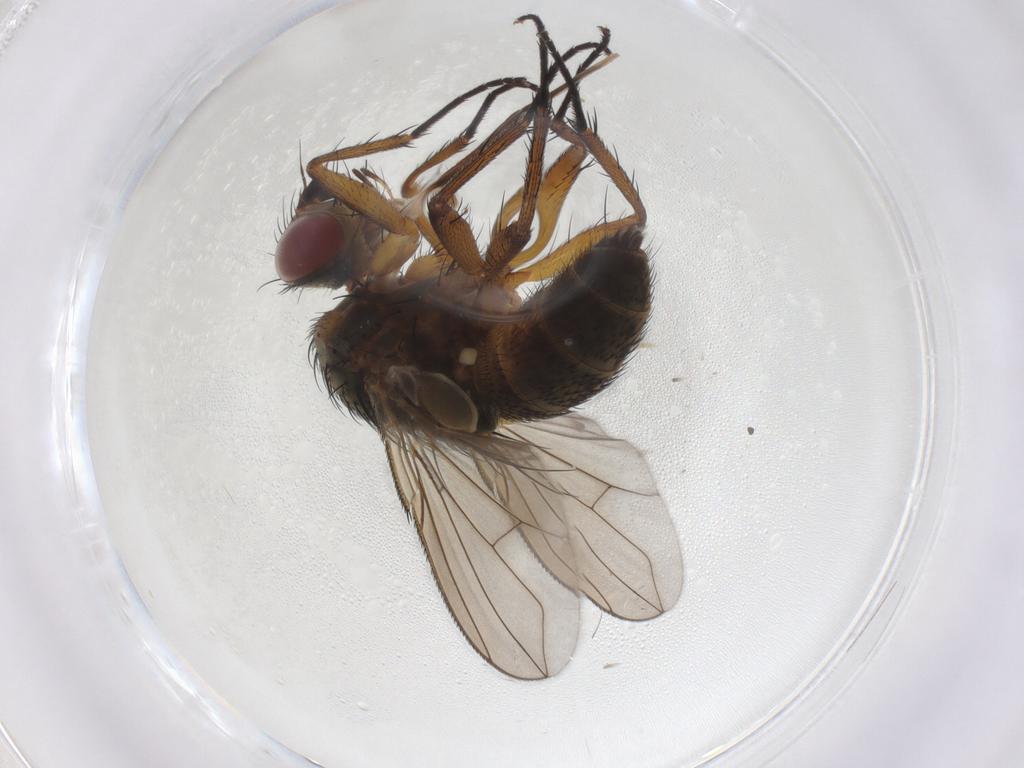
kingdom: Animalia
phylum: Arthropoda
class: Insecta
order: Diptera
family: Tachinidae
